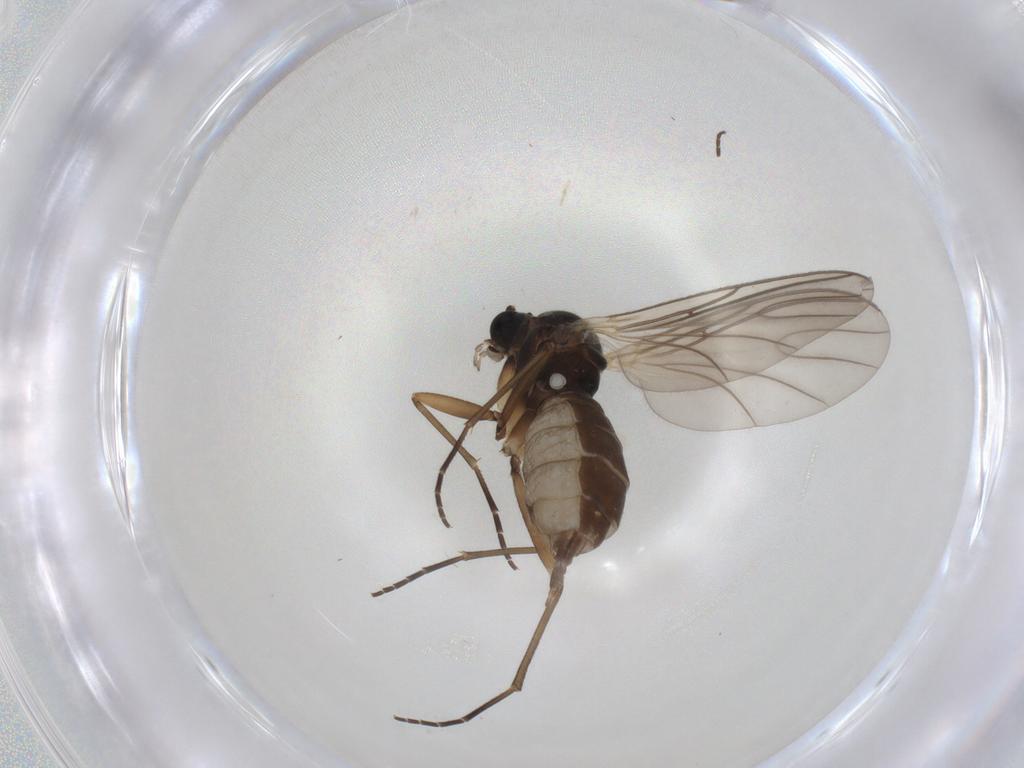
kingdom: Animalia
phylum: Arthropoda
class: Insecta
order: Diptera
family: Sciaridae
